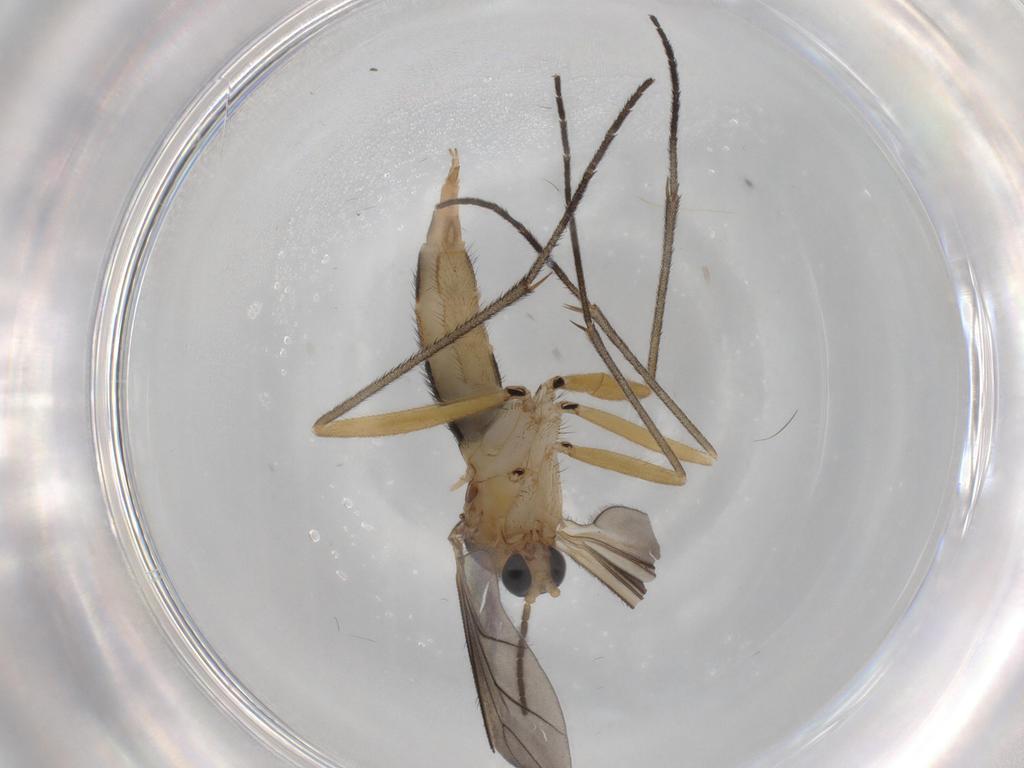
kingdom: Animalia
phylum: Arthropoda
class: Insecta
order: Diptera
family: Sciaridae
